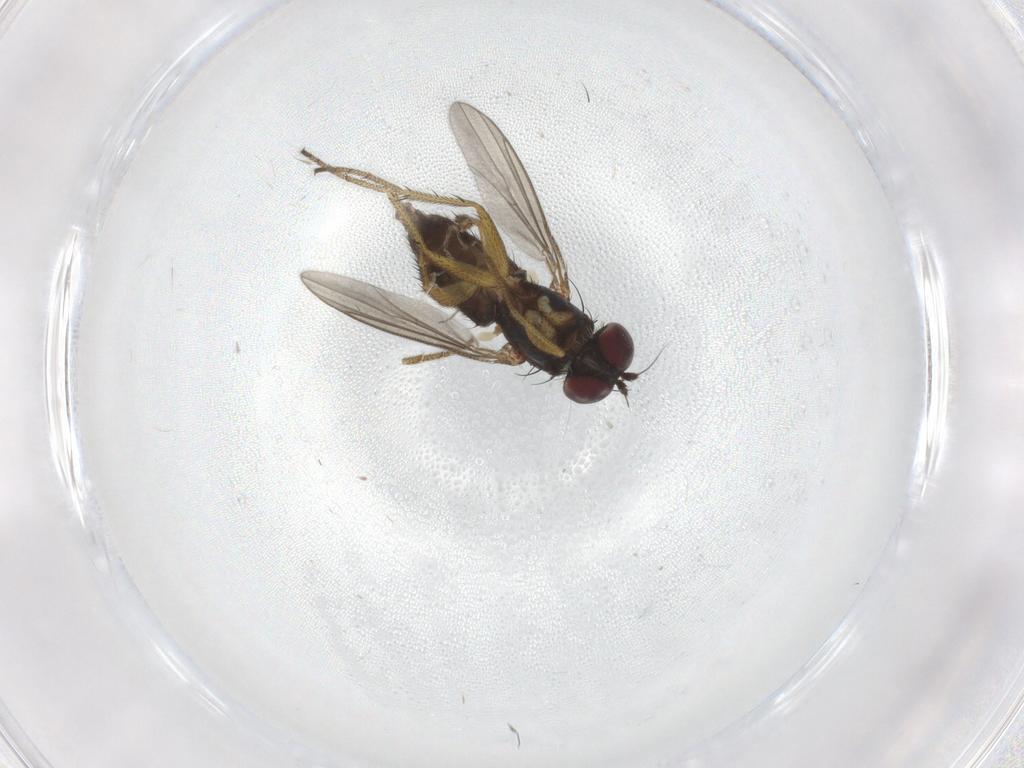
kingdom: Animalia
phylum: Arthropoda
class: Insecta
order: Diptera
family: Dolichopodidae
